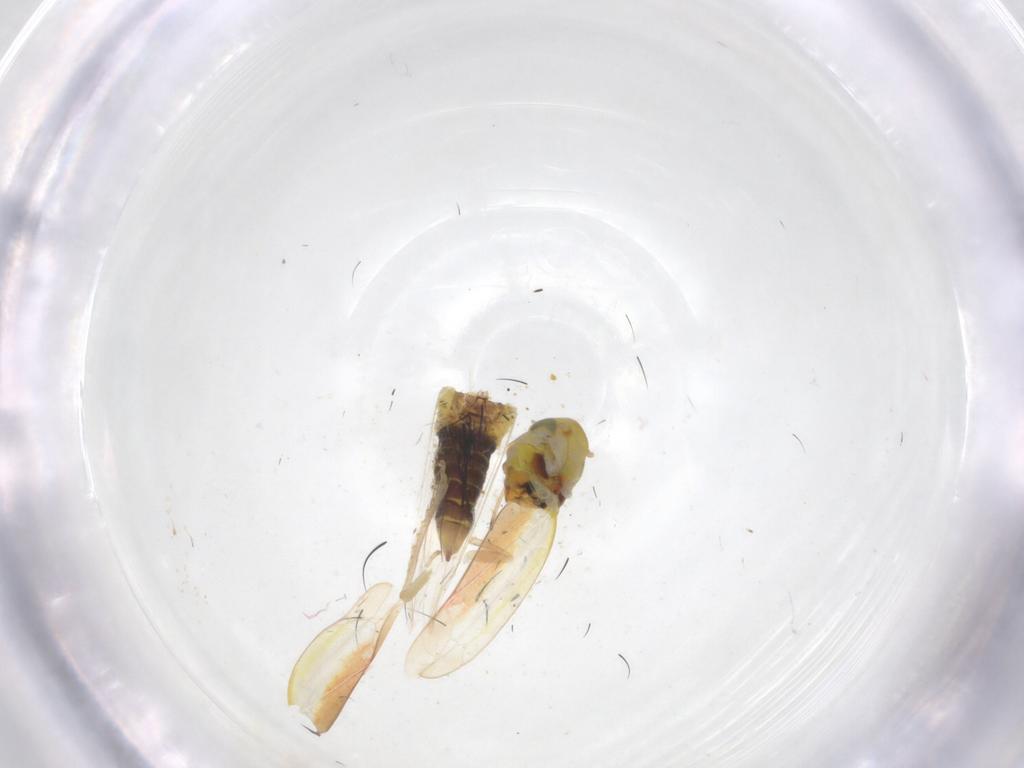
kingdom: Animalia
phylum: Arthropoda
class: Insecta
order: Hemiptera
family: Cicadellidae
